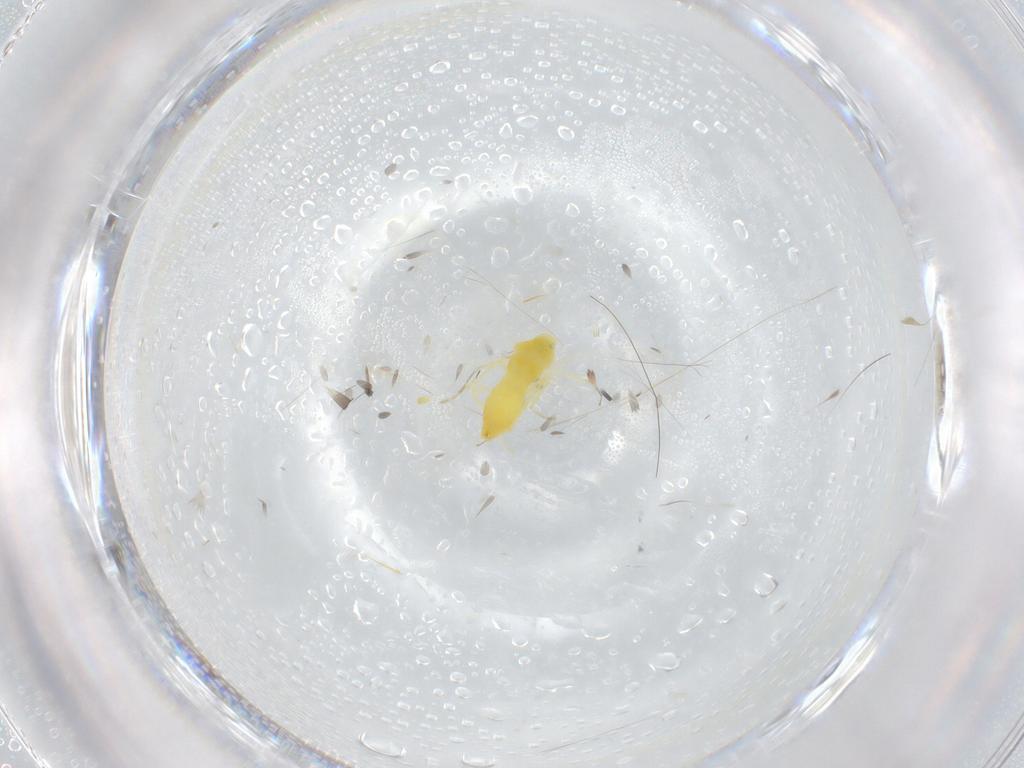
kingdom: Animalia
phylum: Arthropoda
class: Insecta
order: Hemiptera
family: Aleyrodidae
